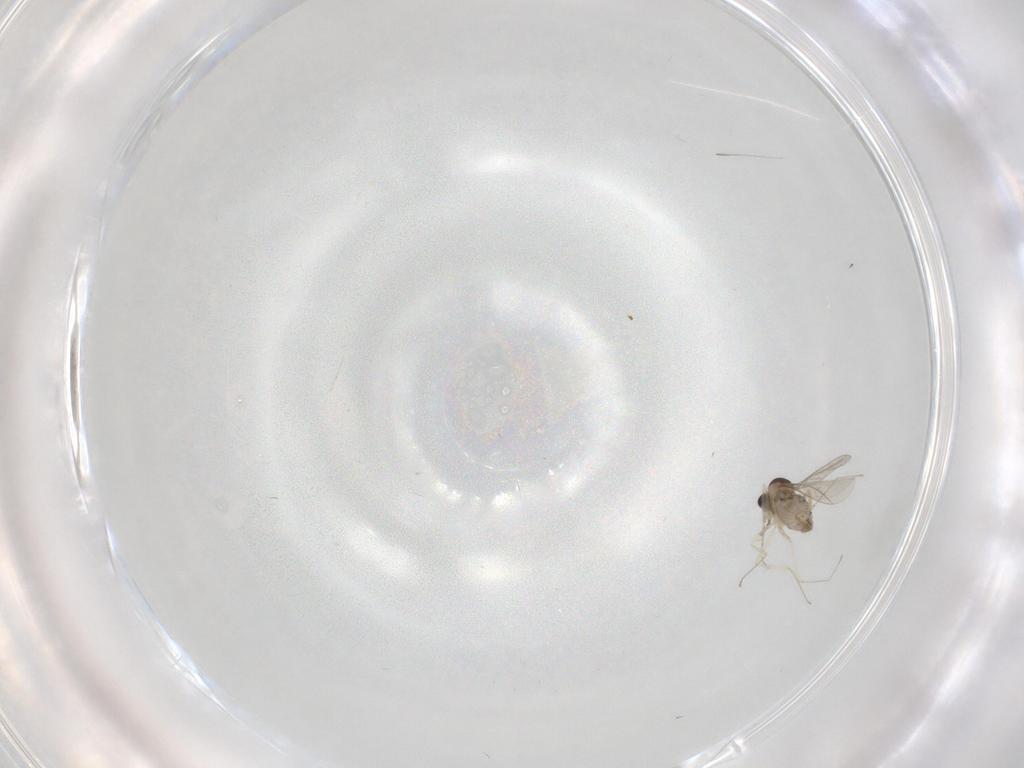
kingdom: Animalia
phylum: Arthropoda
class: Insecta
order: Diptera
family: Cecidomyiidae
